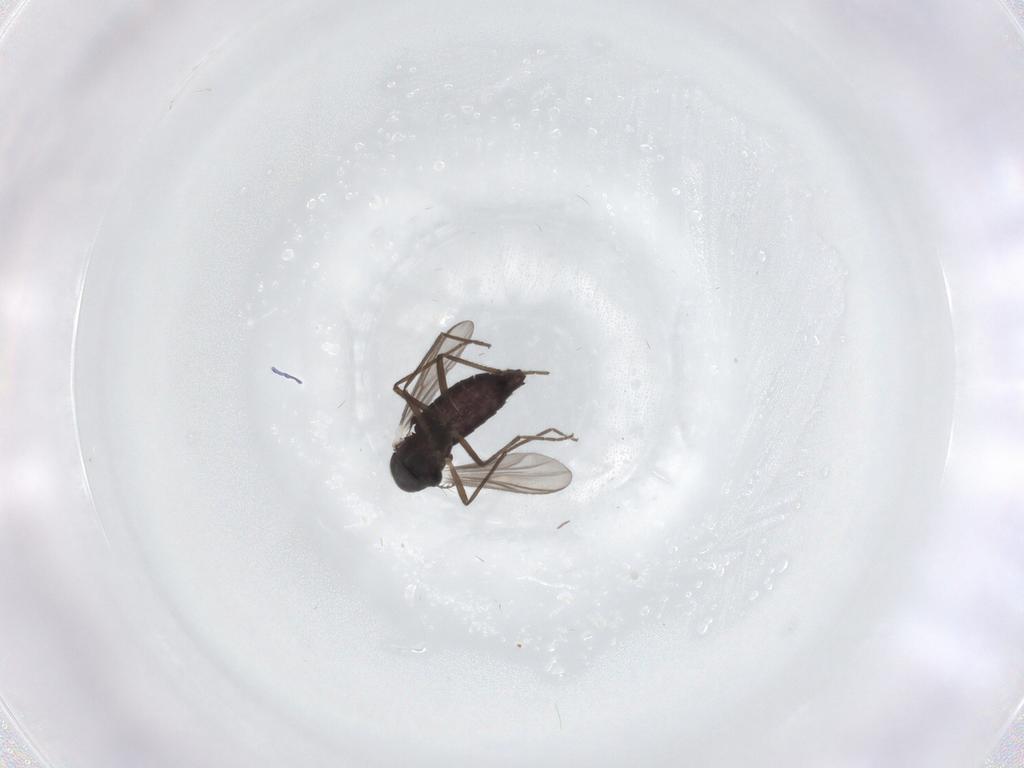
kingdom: Animalia
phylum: Arthropoda
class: Insecta
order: Diptera
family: Chironomidae
